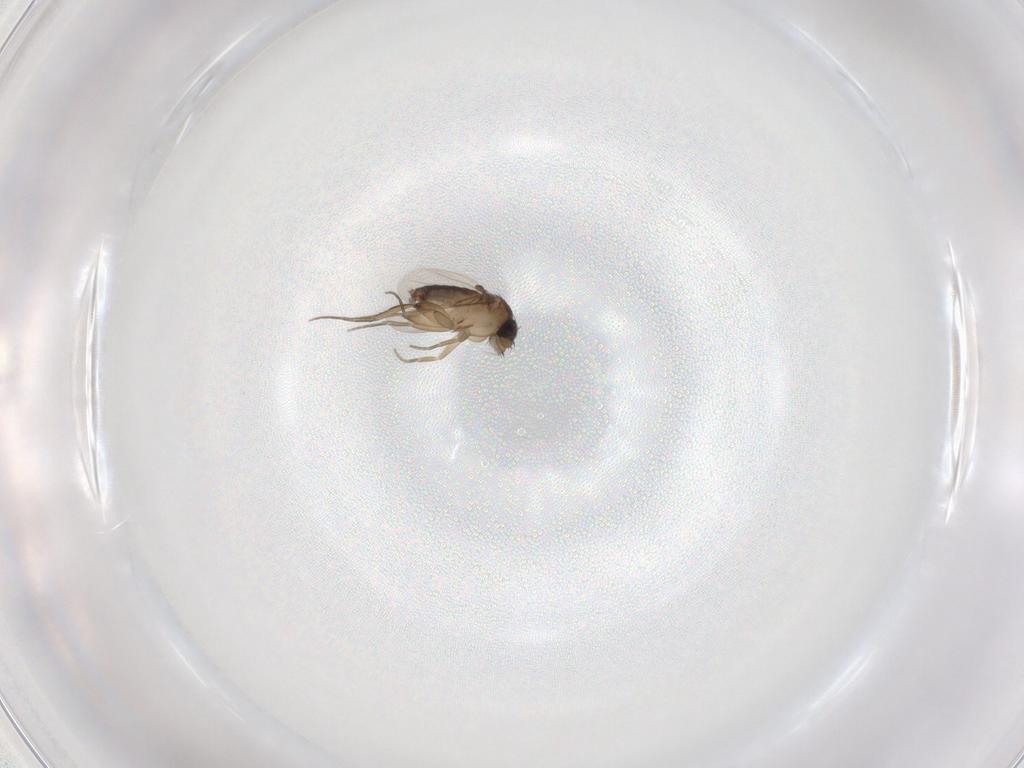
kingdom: Animalia
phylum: Arthropoda
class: Insecta
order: Diptera
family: Phoridae
